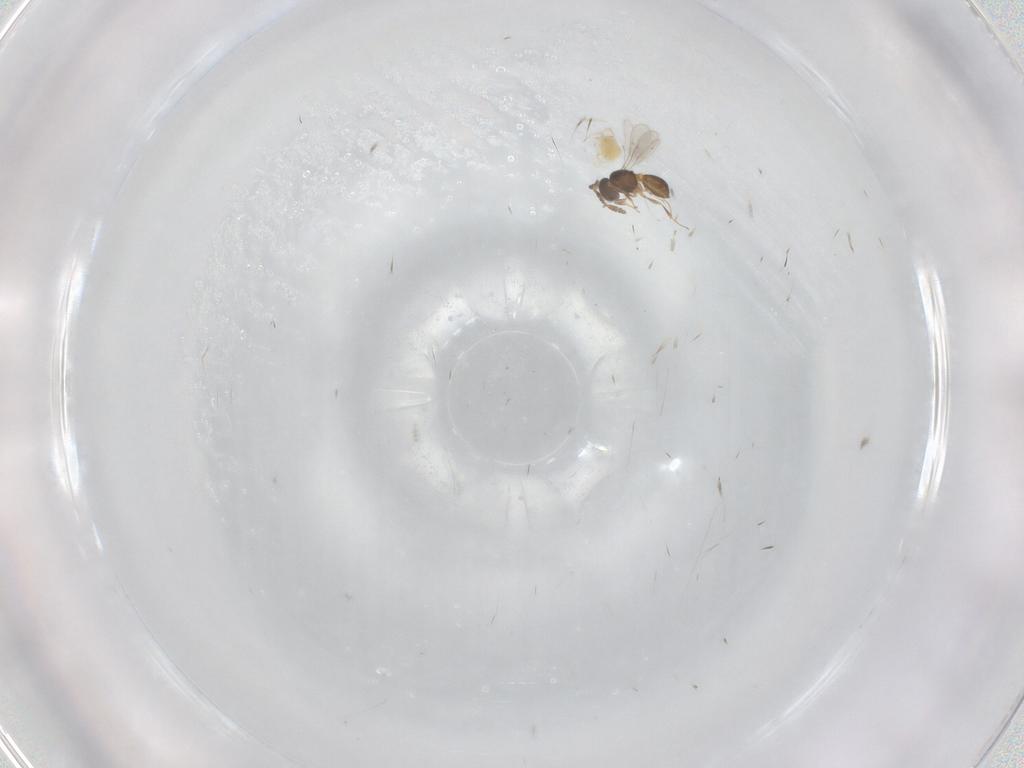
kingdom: Animalia
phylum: Arthropoda
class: Insecta
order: Hymenoptera
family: Scelionidae
